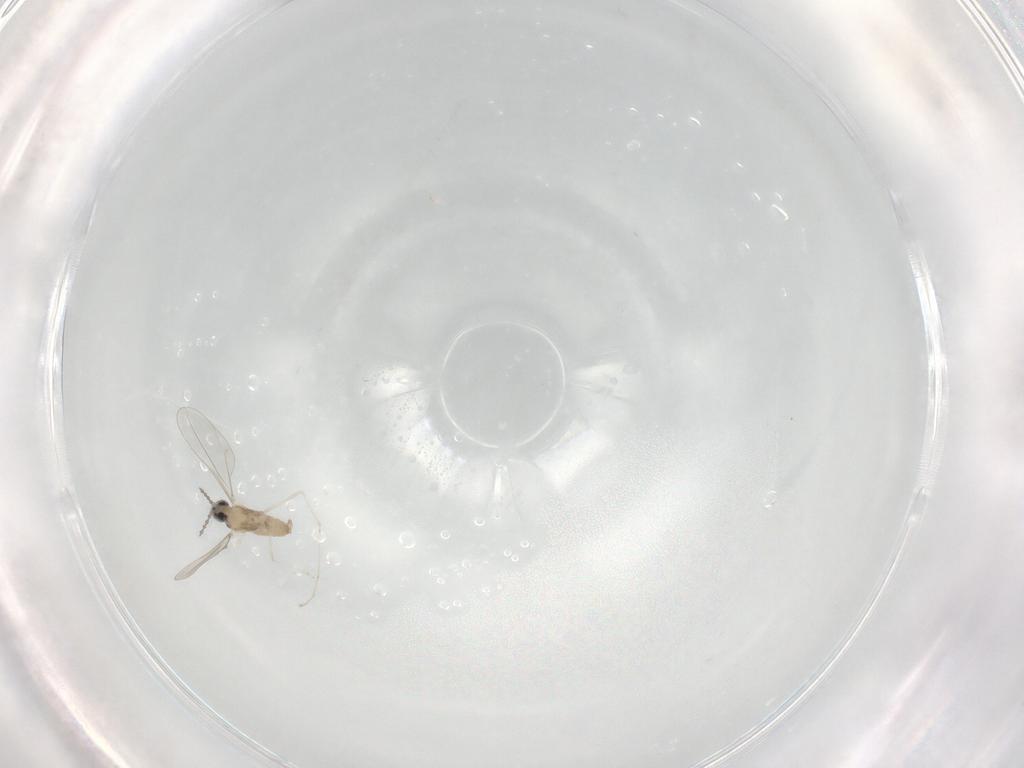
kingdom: Animalia
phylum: Arthropoda
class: Insecta
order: Diptera
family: Cecidomyiidae
